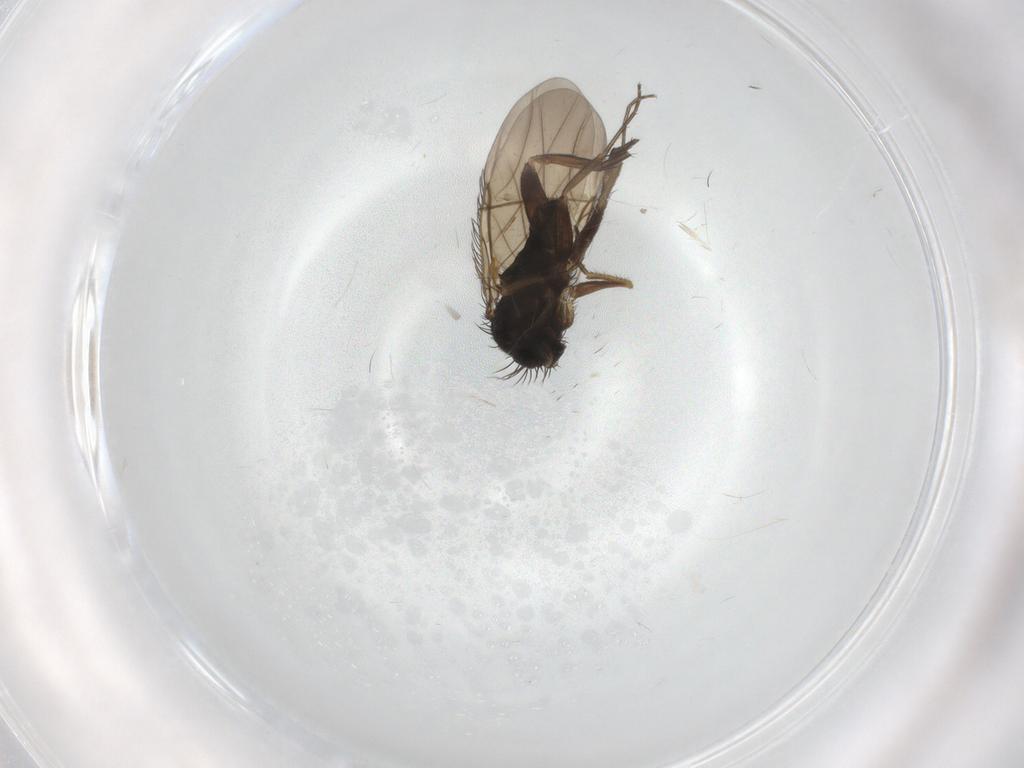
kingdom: Animalia
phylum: Arthropoda
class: Insecta
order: Diptera
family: Phoridae
